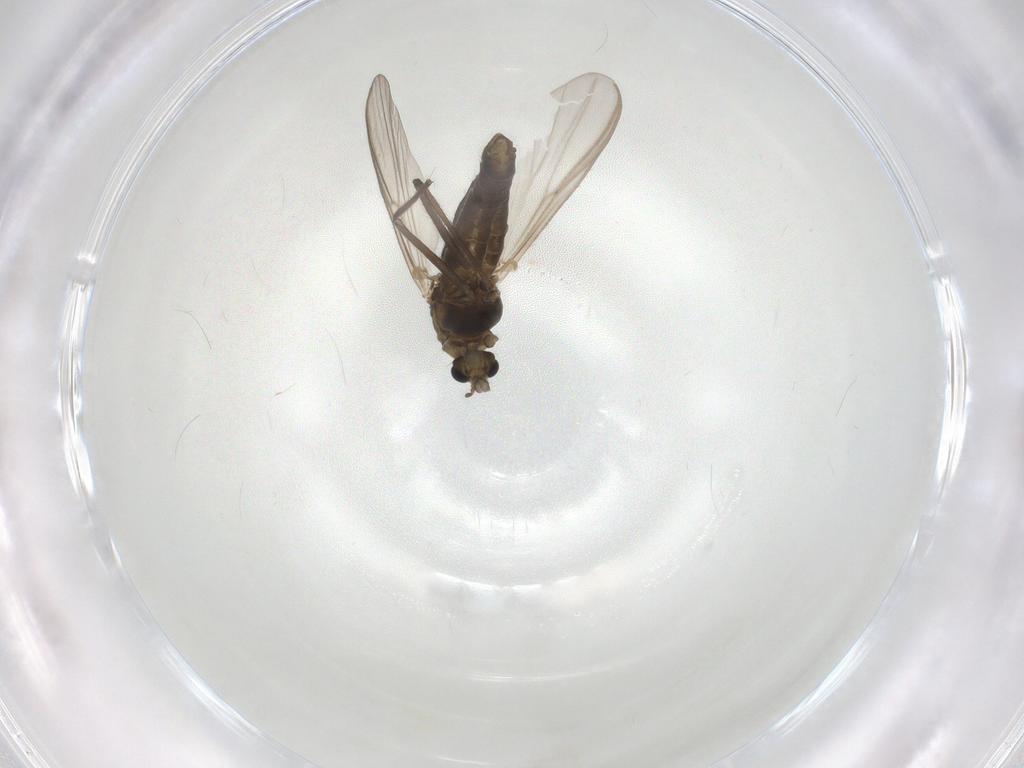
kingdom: Animalia
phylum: Arthropoda
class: Insecta
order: Diptera
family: Chironomidae
